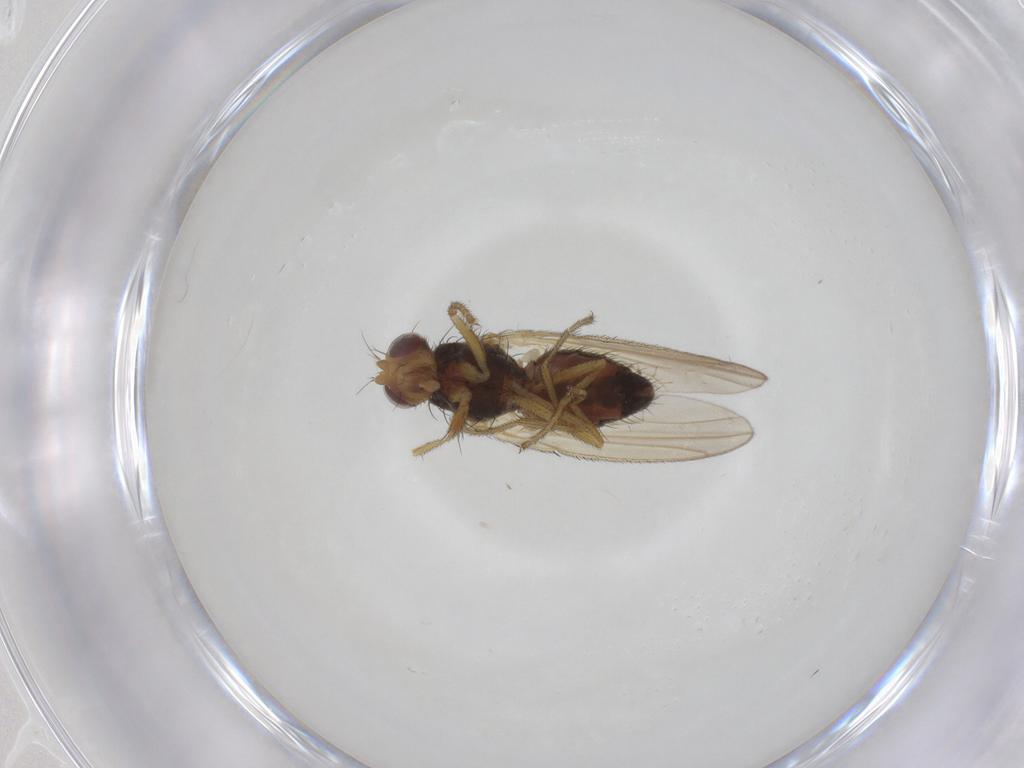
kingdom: Animalia
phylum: Arthropoda
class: Insecta
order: Diptera
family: Heleomyzidae
